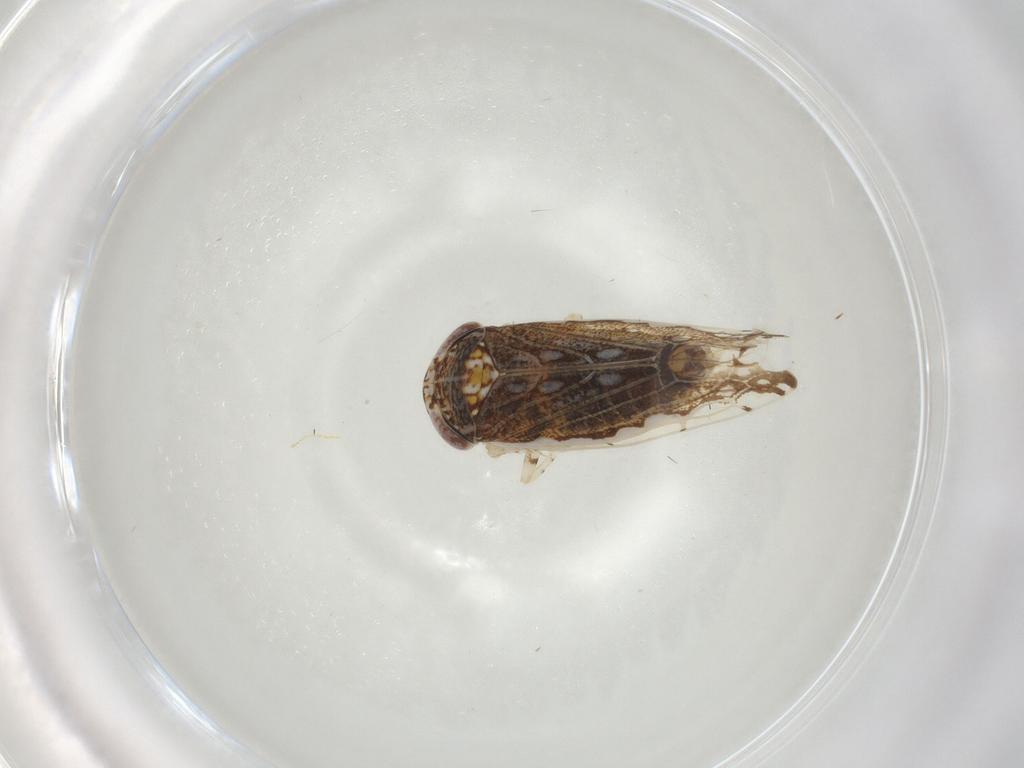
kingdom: Animalia
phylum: Arthropoda
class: Insecta
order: Hemiptera
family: Cicadellidae
